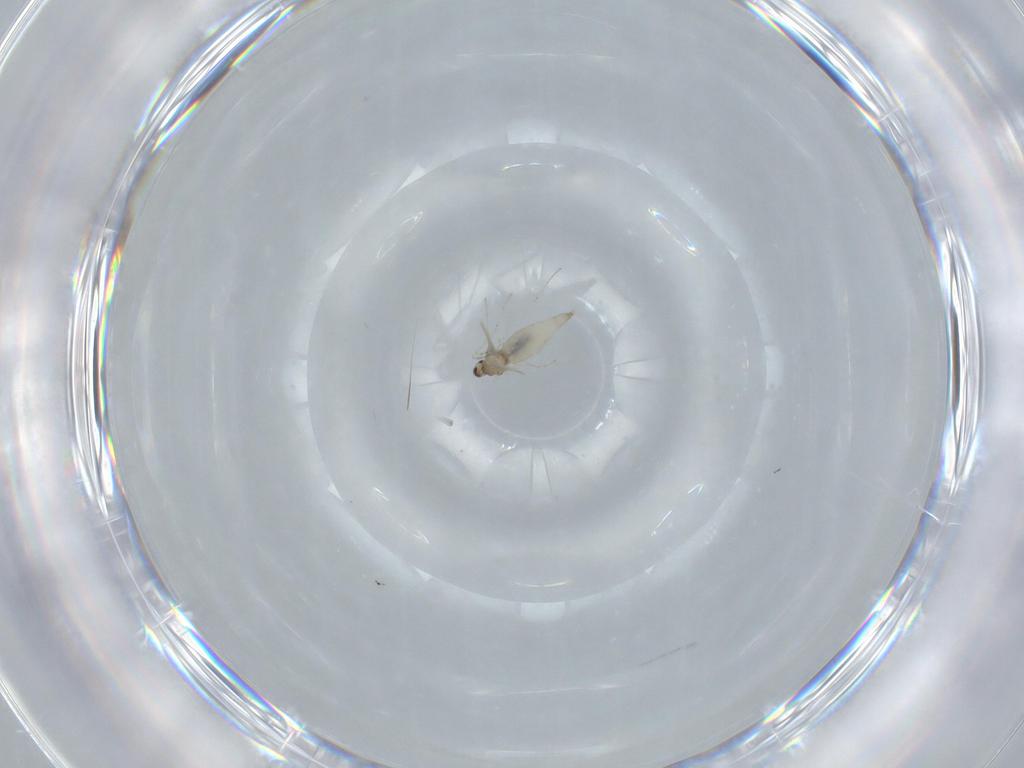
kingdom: Animalia
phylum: Arthropoda
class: Insecta
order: Diptera
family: Cecidomyiidae
